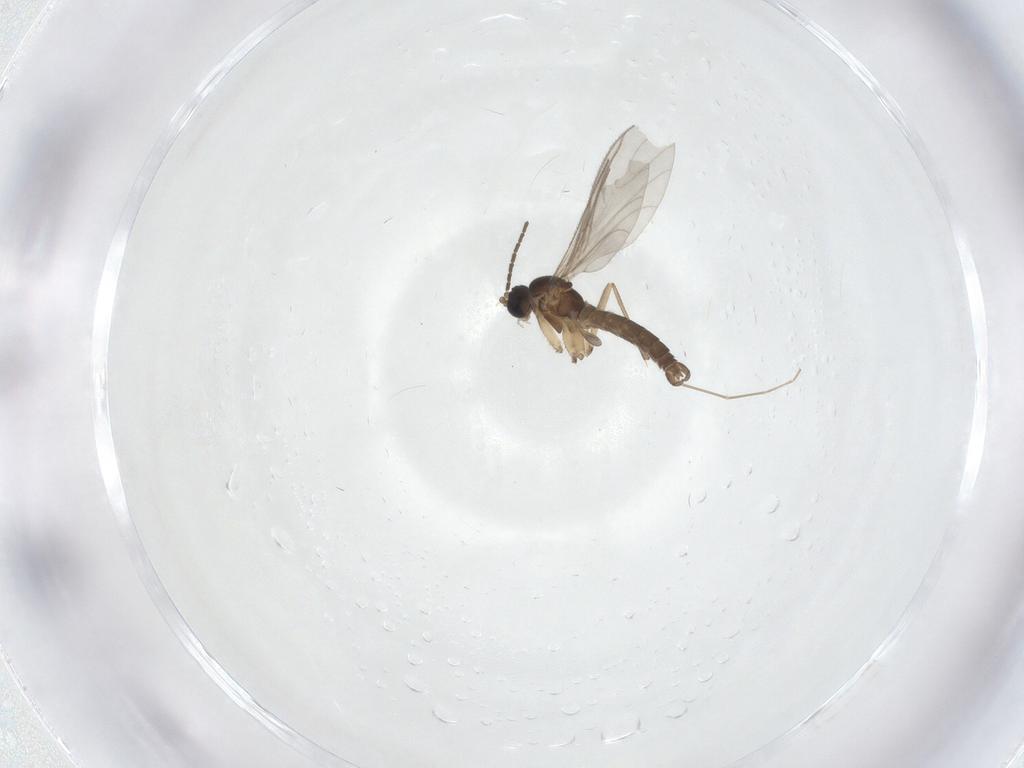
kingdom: Animalia
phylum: Arthropoda
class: Insecta
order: Diptera
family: Chironomidae
